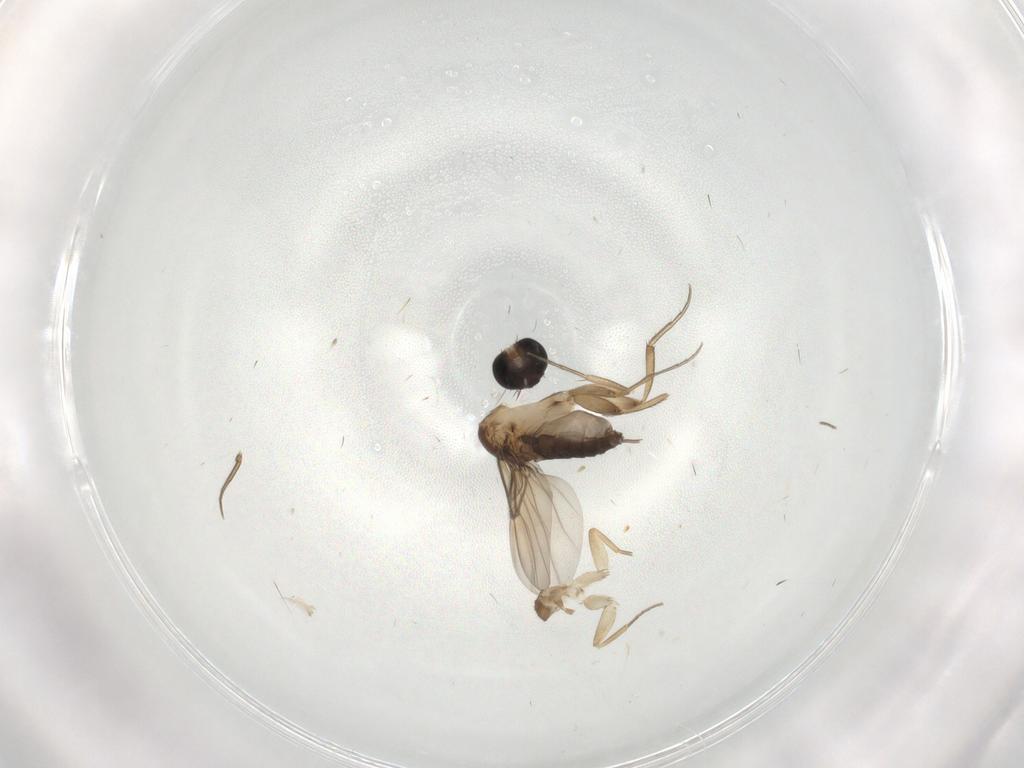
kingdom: Animalia
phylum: Arthropoda
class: Insecta
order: Diptera
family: Phoridae
